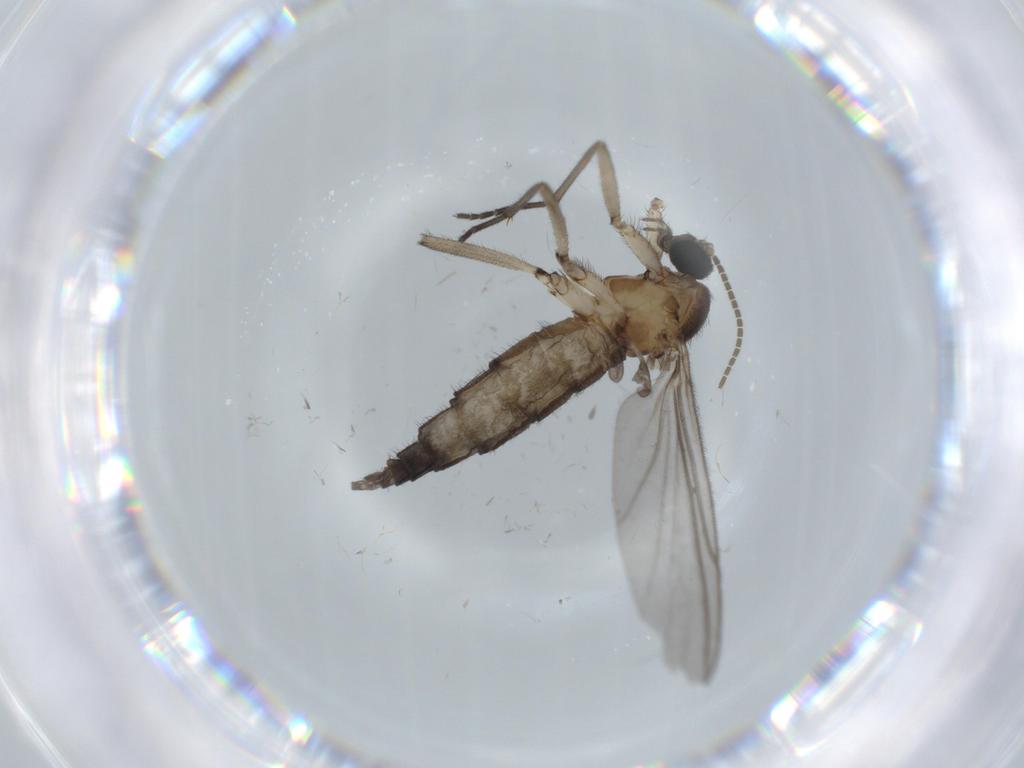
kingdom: Animalia
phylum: Arthropoda
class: Insecta
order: Diptera
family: Sciaridae
